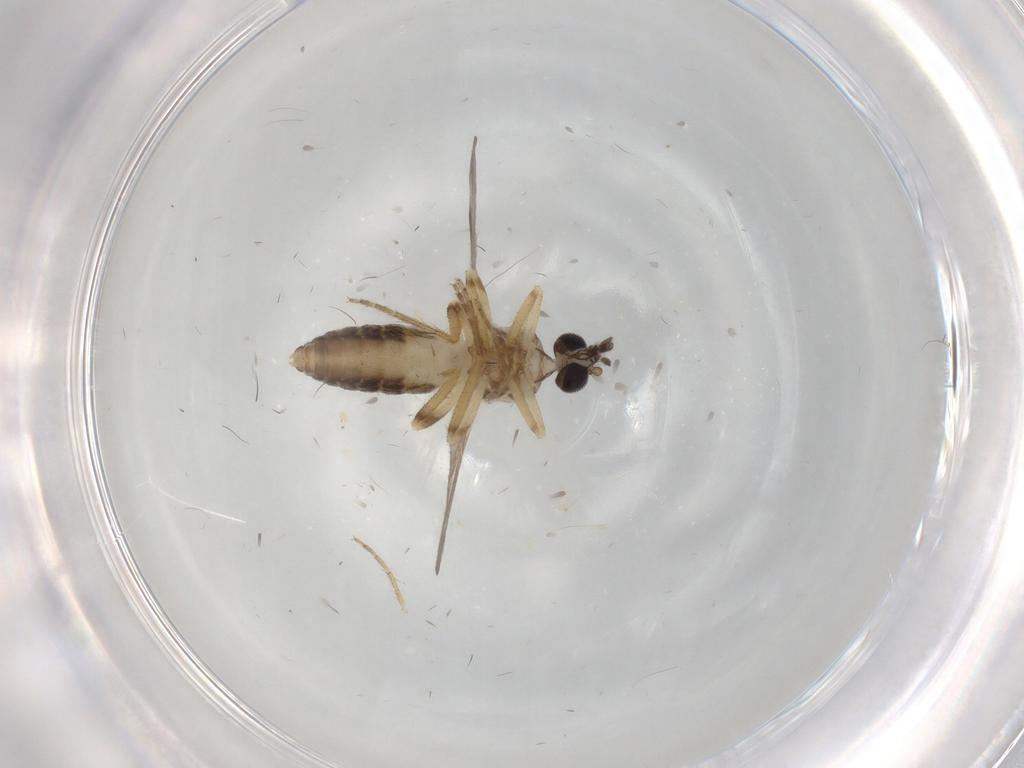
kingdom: Animalia
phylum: Arthropoda
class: Insecta
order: Diptera
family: Ceratopogonidae
